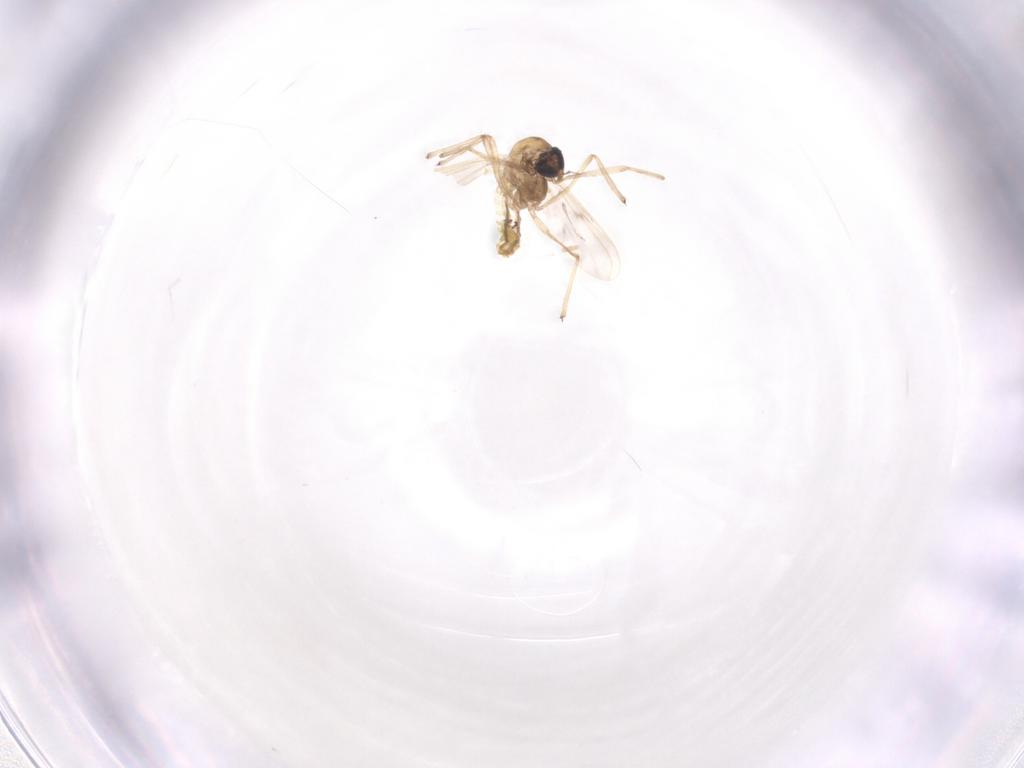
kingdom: Animalia
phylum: Arthropoda
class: Insecta
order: Diptera
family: Chironomidae
